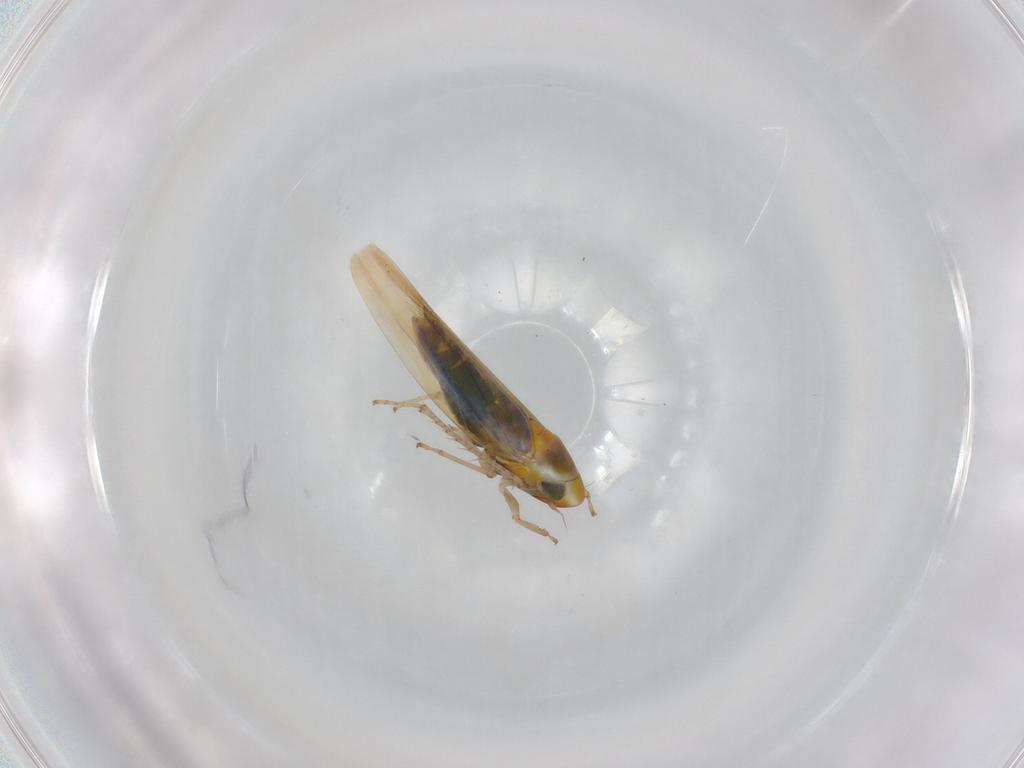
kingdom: Animalia
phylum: Arthropoda
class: Insecta
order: Hemiptera
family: Cicadellidae
